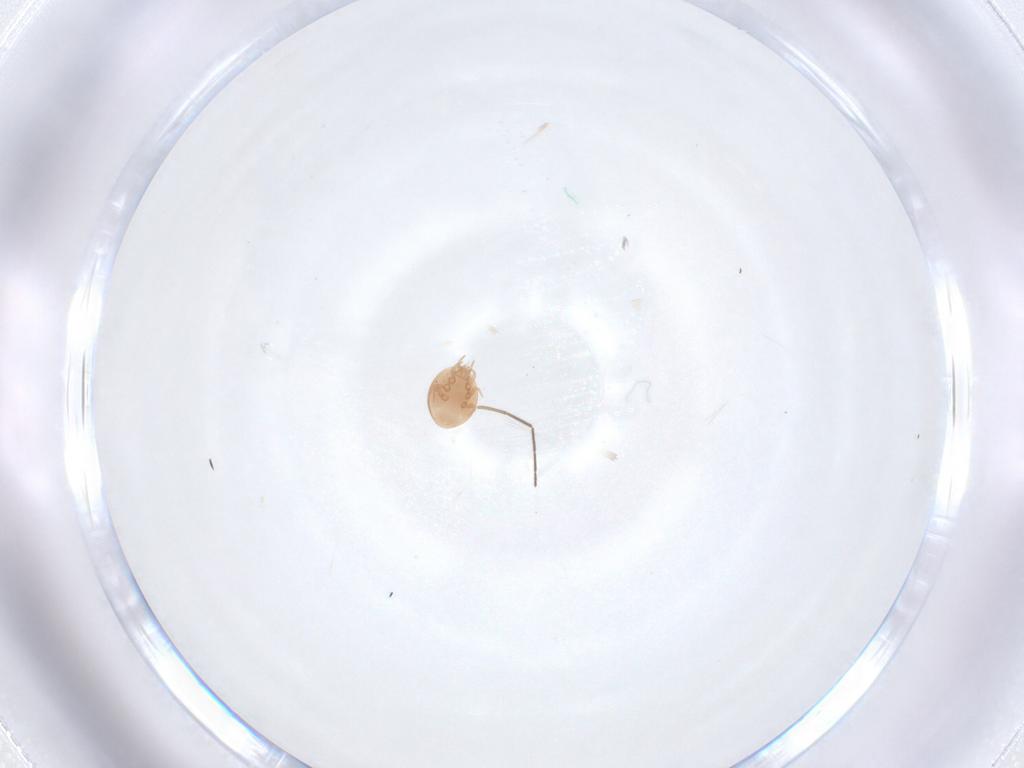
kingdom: Animalia
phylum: Arthropoda
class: Arachnida
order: Mesostigmata
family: Trematuridae
